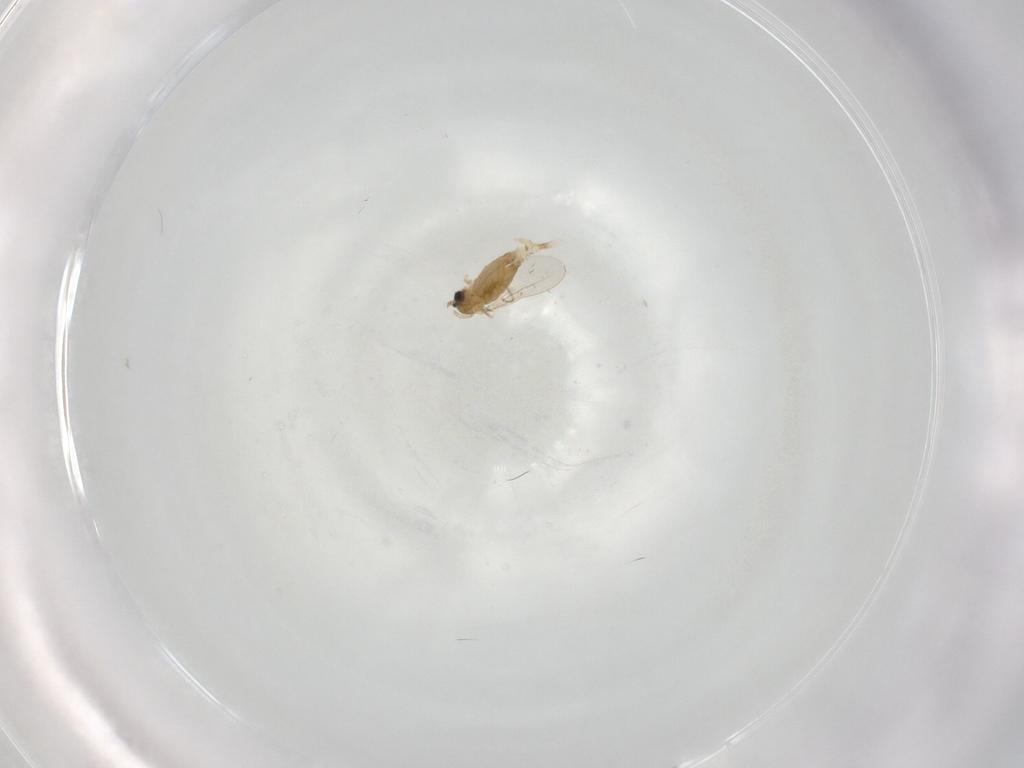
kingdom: Animalia
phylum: Arthropoda
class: Insecta
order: Diptera
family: Cecidomyiidae
